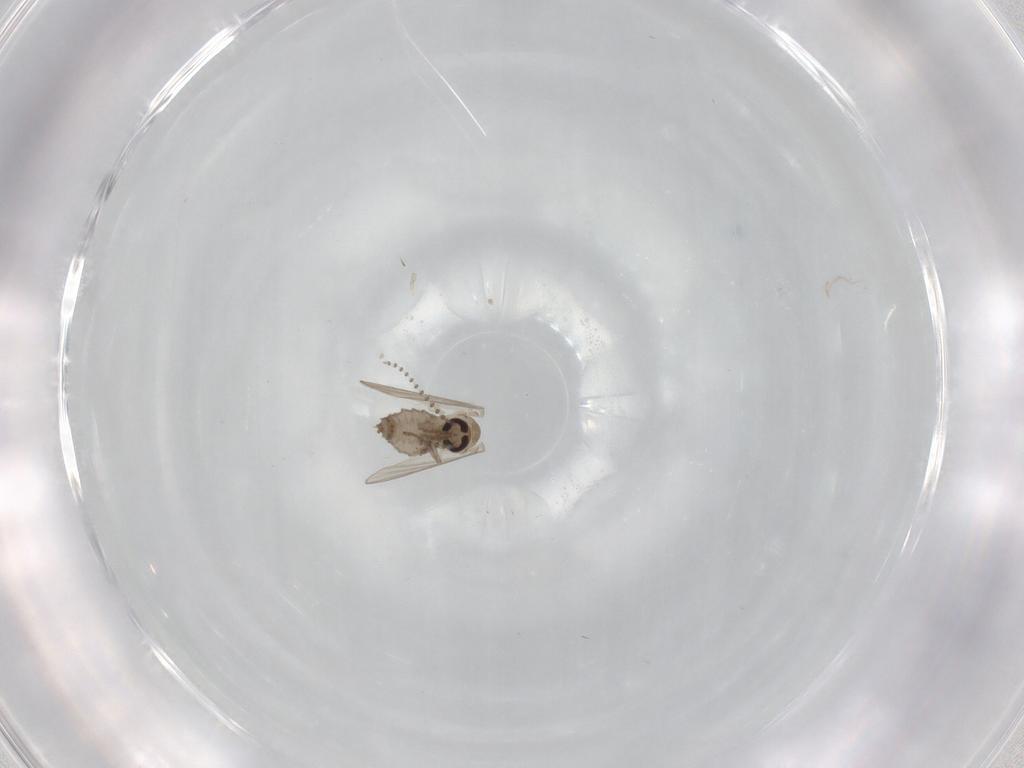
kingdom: Animalia
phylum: Arthropoda
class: Insecta
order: Diptera
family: Psychodidae
